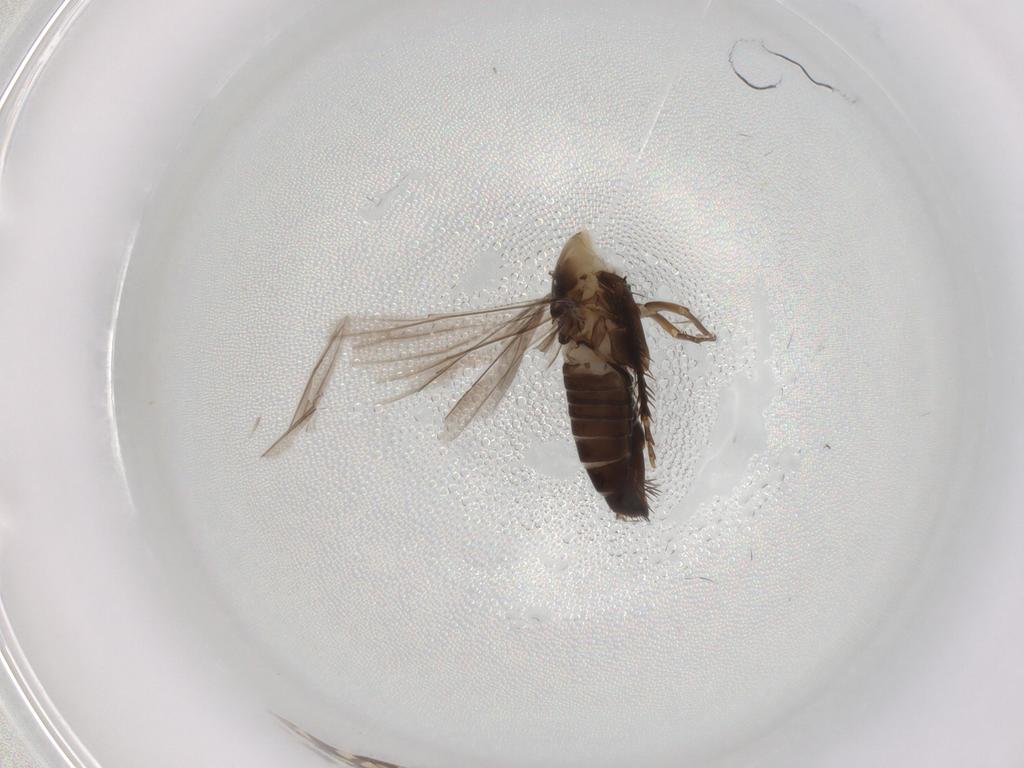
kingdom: Animalia
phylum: Arthropoda
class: Insecta
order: Hemiptera
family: Cicadellidae
